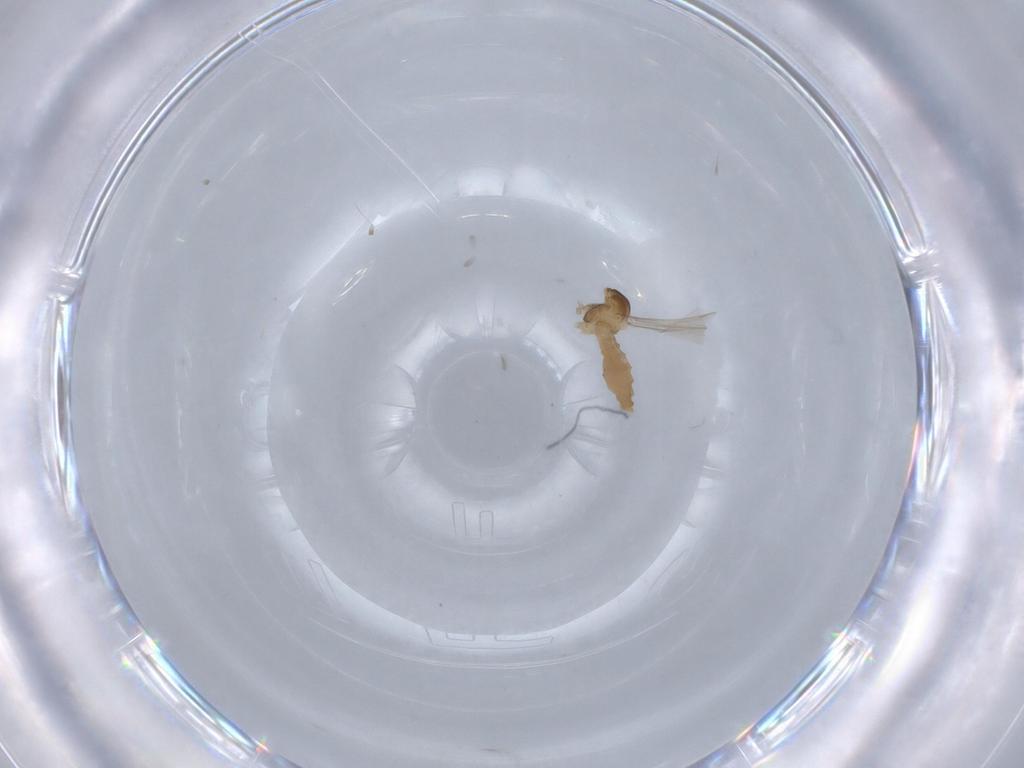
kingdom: Animalia
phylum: Arthropoda
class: Insecta
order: Diptera
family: Cecidomyiidae
